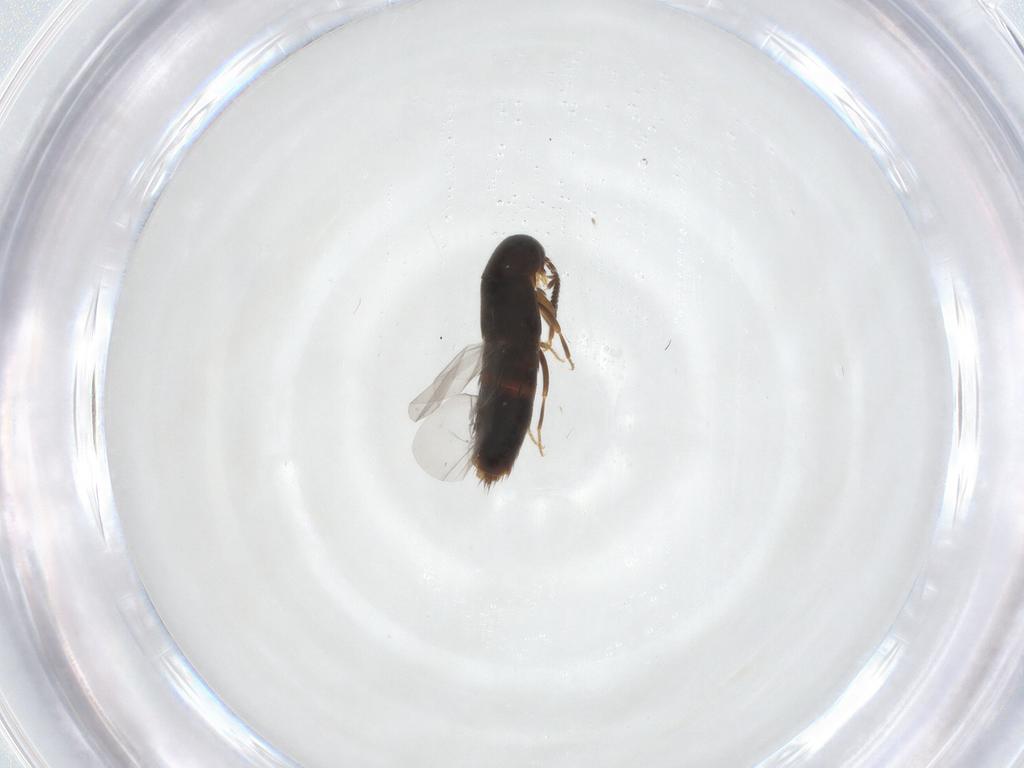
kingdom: Animalia
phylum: Arthropoda
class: Insecta
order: Coleoptera
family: Staphylinidae
